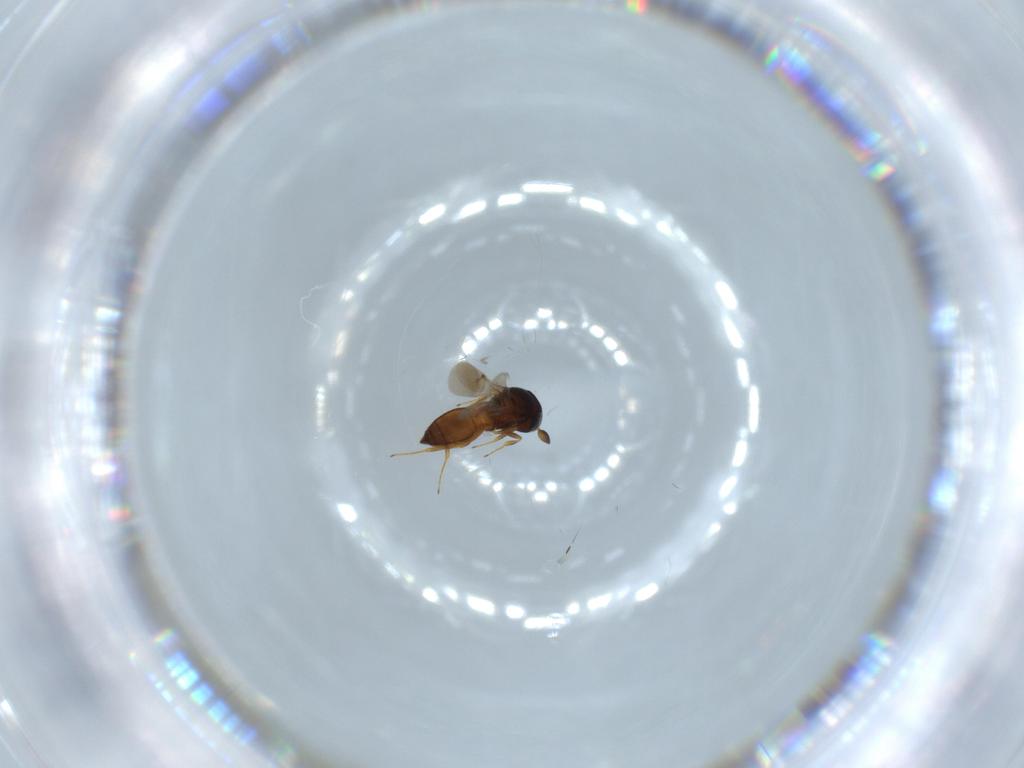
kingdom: Animalia
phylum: Arthropoda
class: Insecta
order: Hymenoptera
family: Scelionidae
